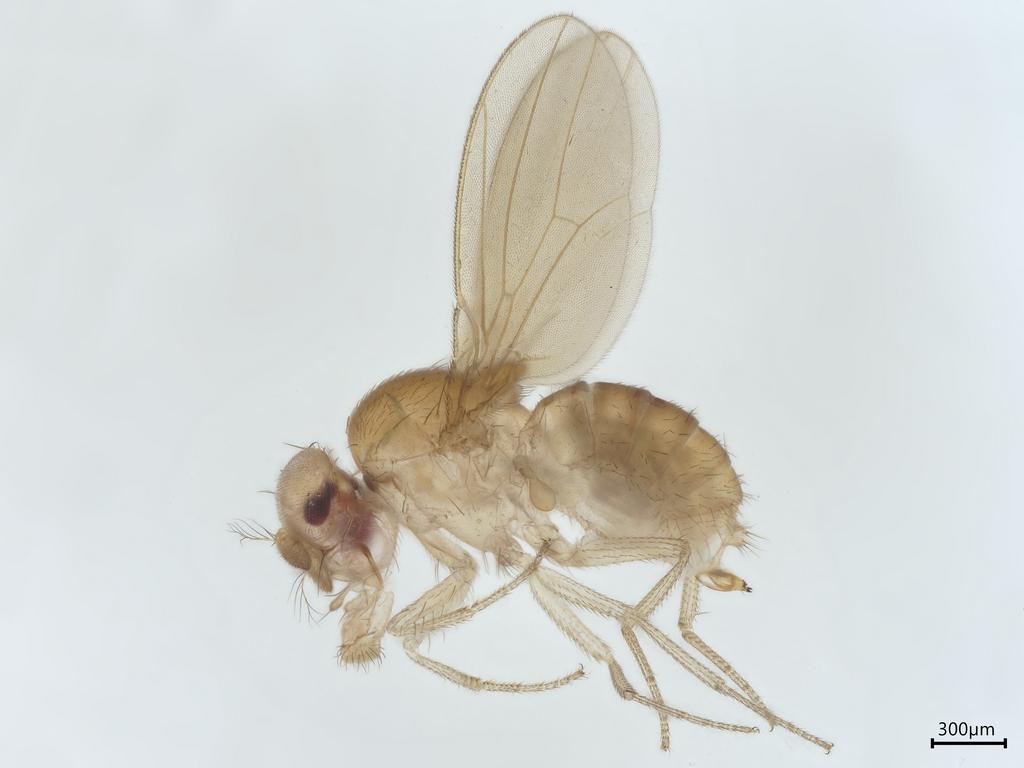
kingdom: Animalia
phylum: Arthropoda
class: Insecta
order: Diptera
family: Drosophilidae
